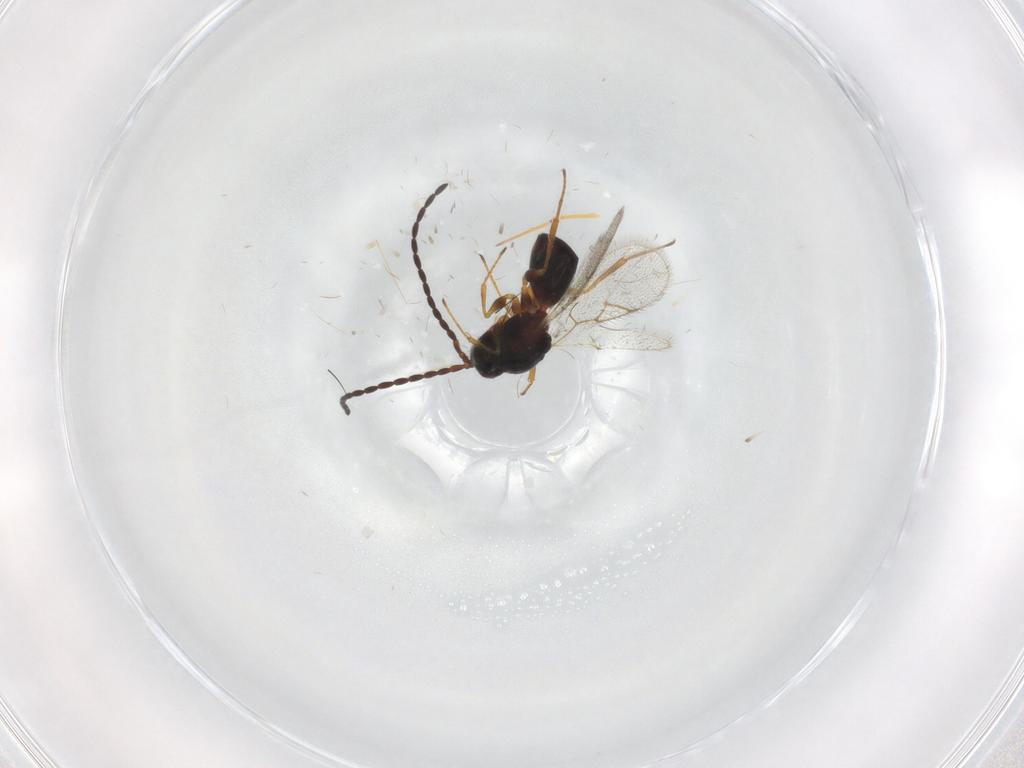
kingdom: Animalia
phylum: Arthropoda
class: Insecta
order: Hymenoptera
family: Figitidae
